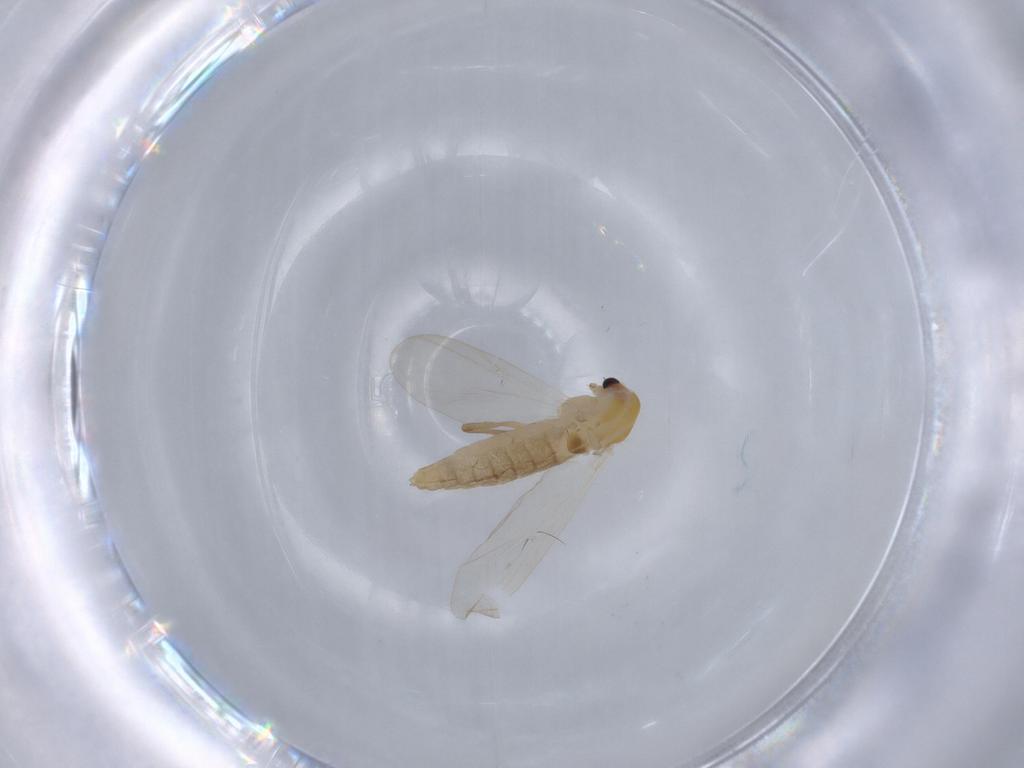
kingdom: Animalia
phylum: Arthropoda
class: Insecta
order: Diptera
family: Chironomidae
